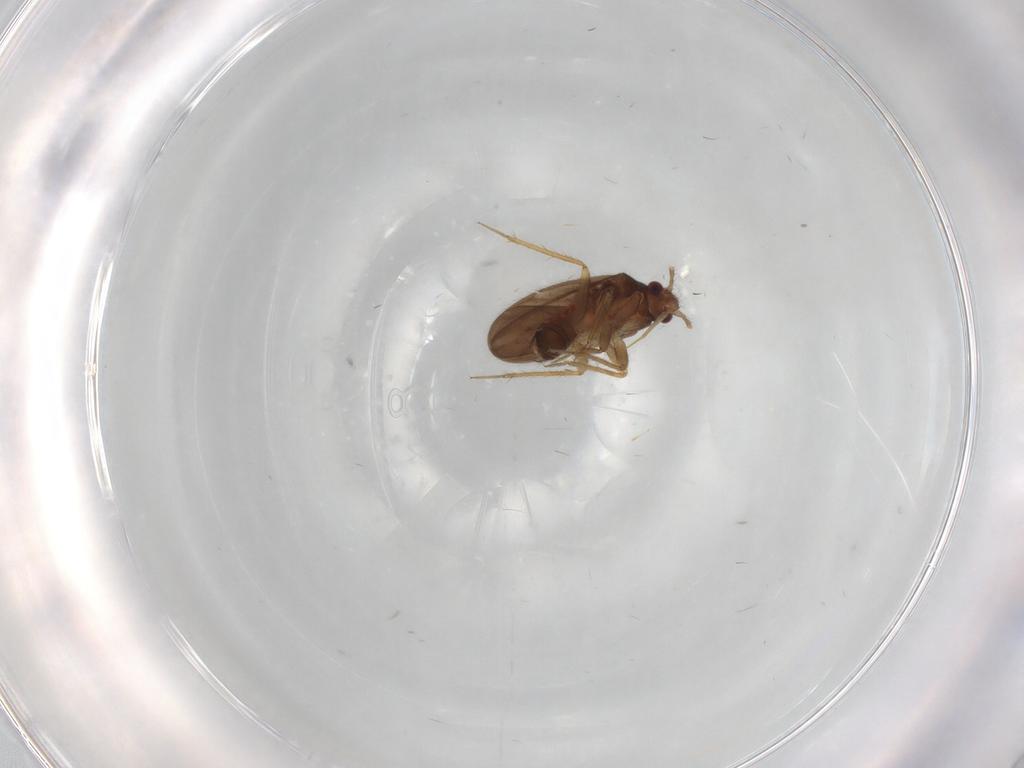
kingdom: Animalia
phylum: Arthropoda
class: Insecta
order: Hemiptera
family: Ceratocombidae
